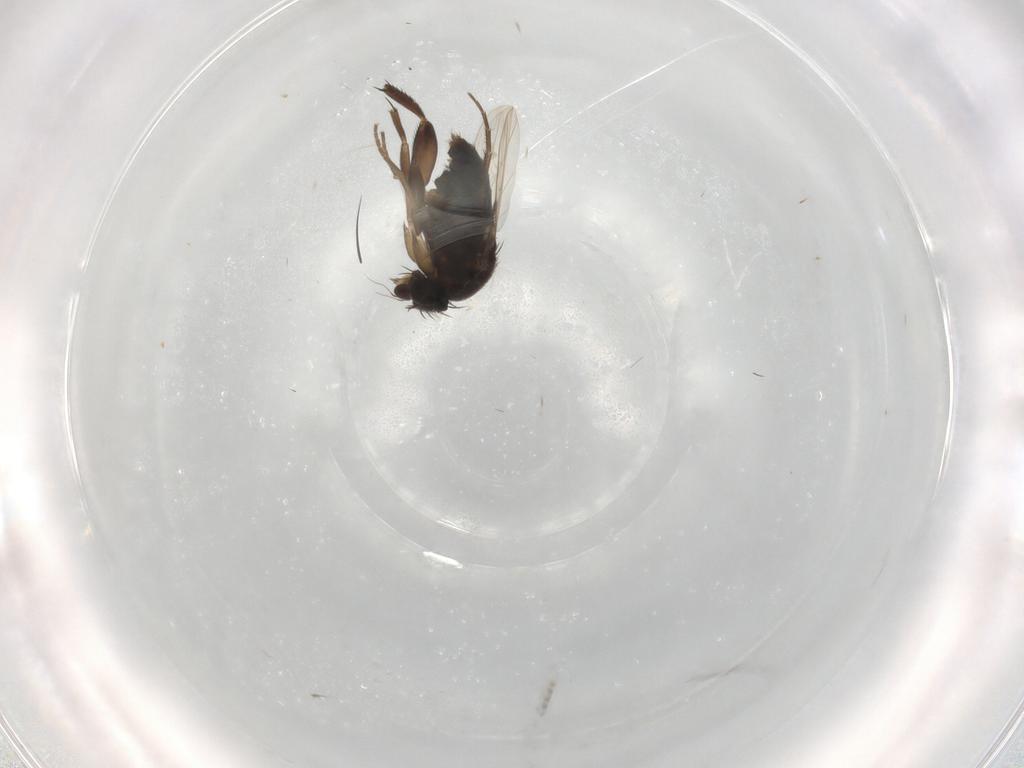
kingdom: Animalia
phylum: Arthropoda
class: Insecta
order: Diptera
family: Phoridae
